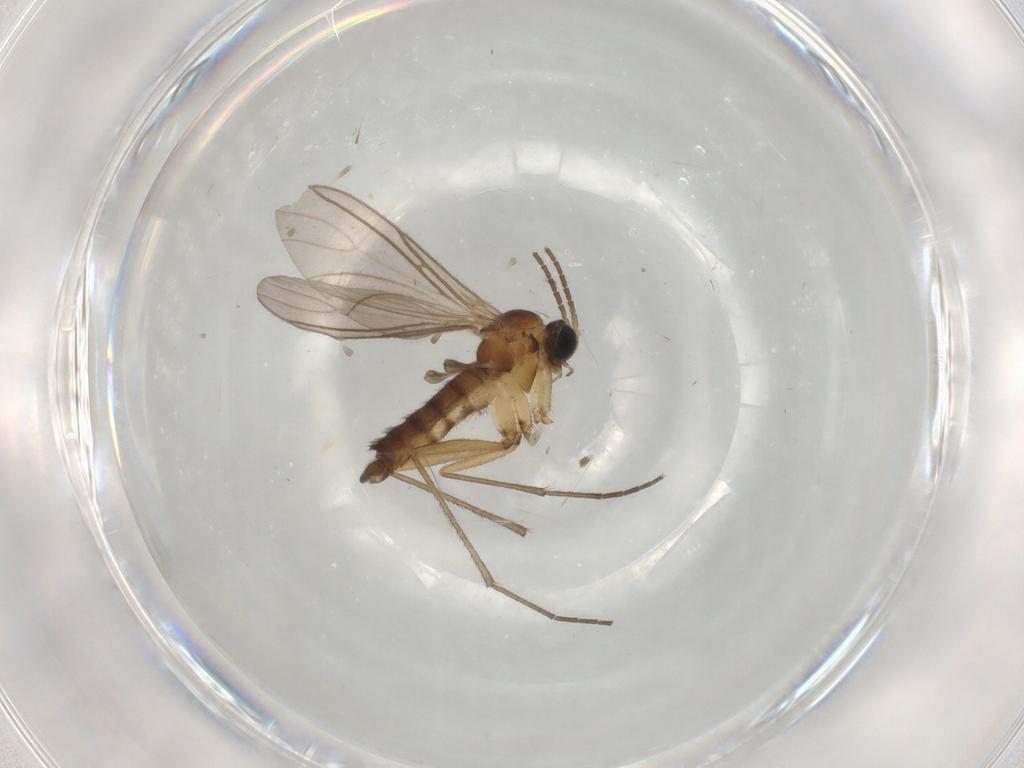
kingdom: Animalia
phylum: Arthropoda
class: Insecta
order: Diptera
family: Sciaridae
